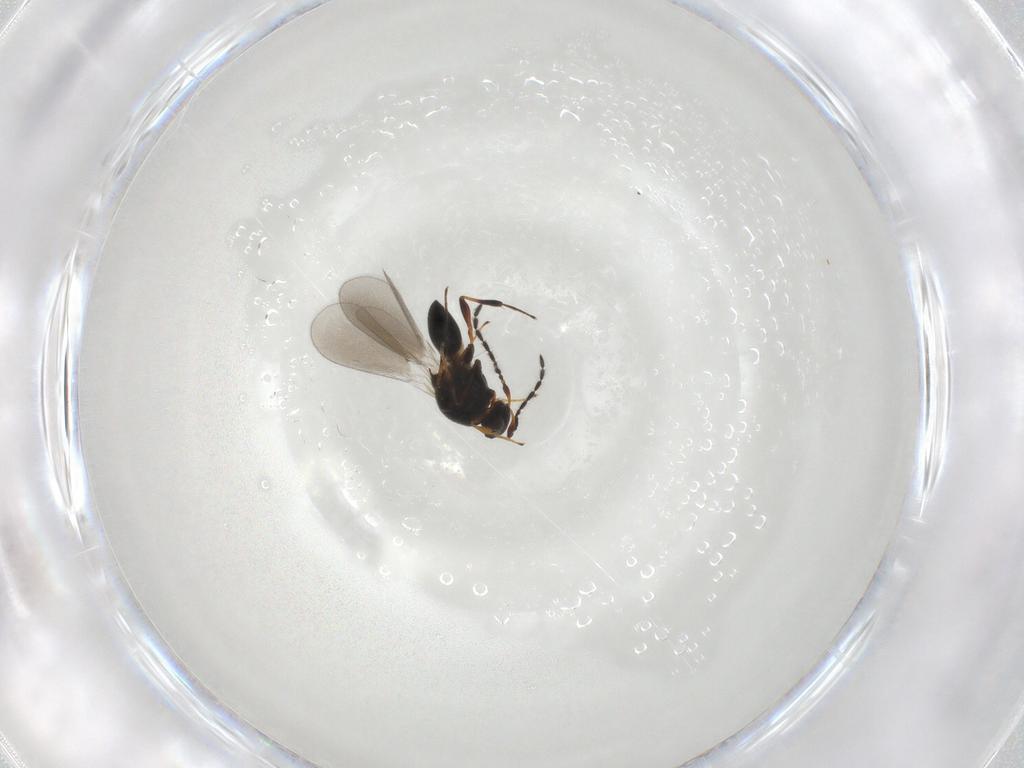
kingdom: Animalia
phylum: Arthropoda
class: Insecta
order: Hymenoptera
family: Platygastridae
